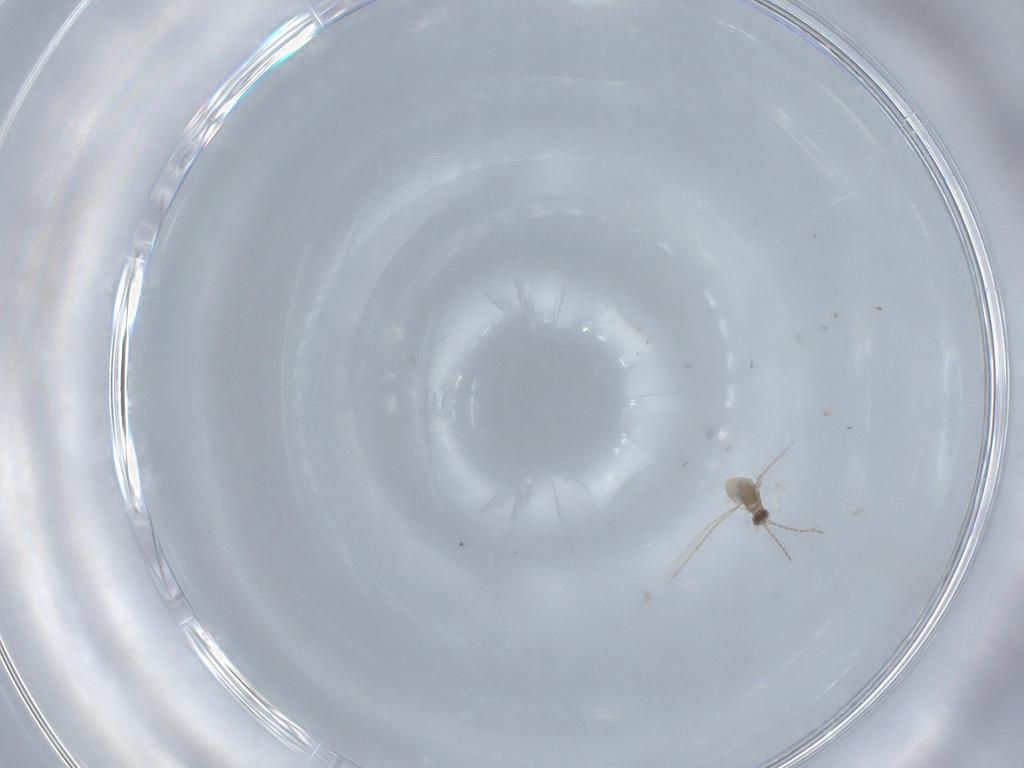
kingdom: Animalia
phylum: Arthropoda
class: Insecta
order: Diptera
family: Cecidomyiidae
